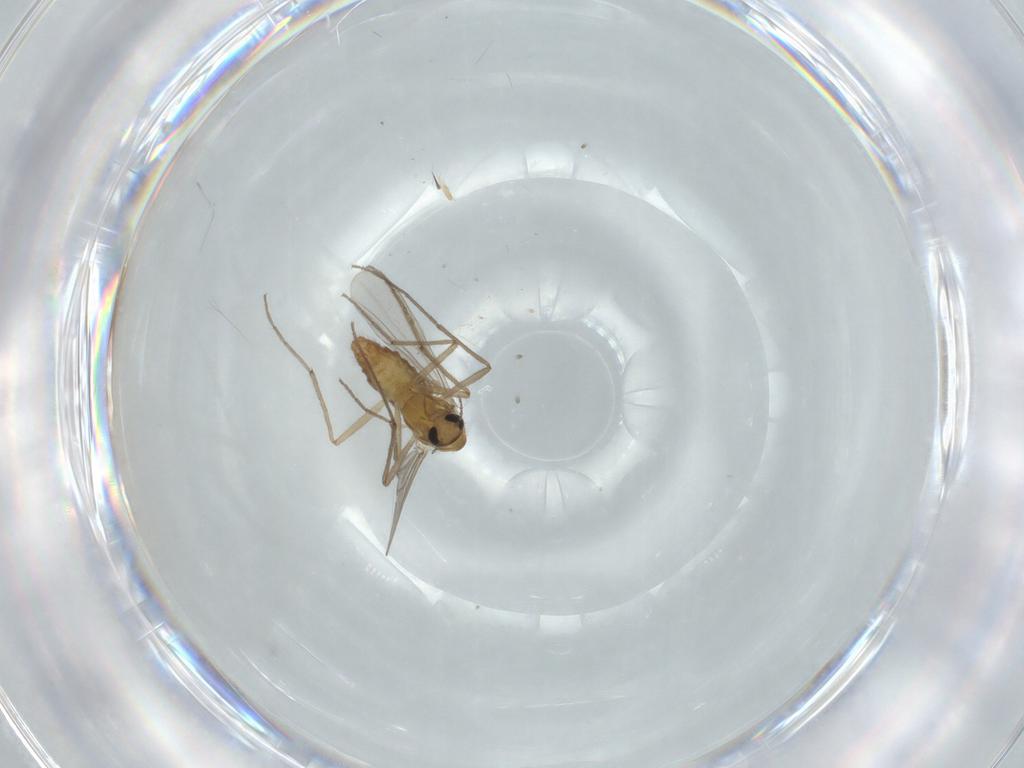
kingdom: Animalia
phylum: Arthropoda
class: Insecta
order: Diptera
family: Chironomidae
